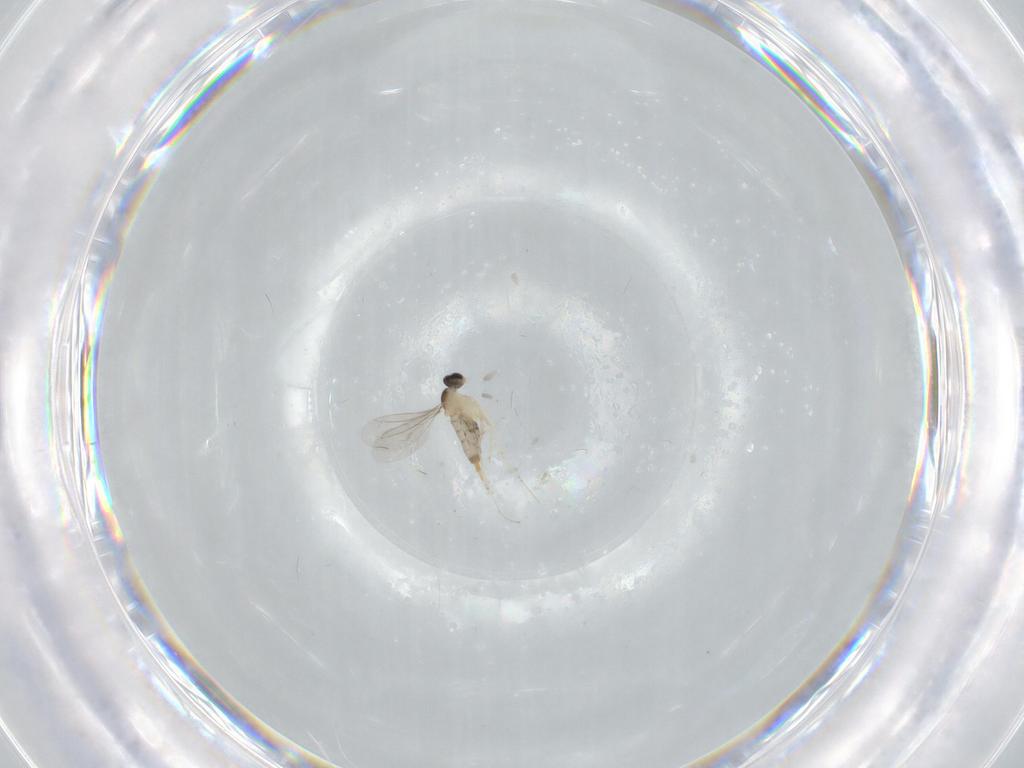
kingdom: Animalia
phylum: Arthropoda
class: Insecta
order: Diptera
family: Cecidomyiidae
